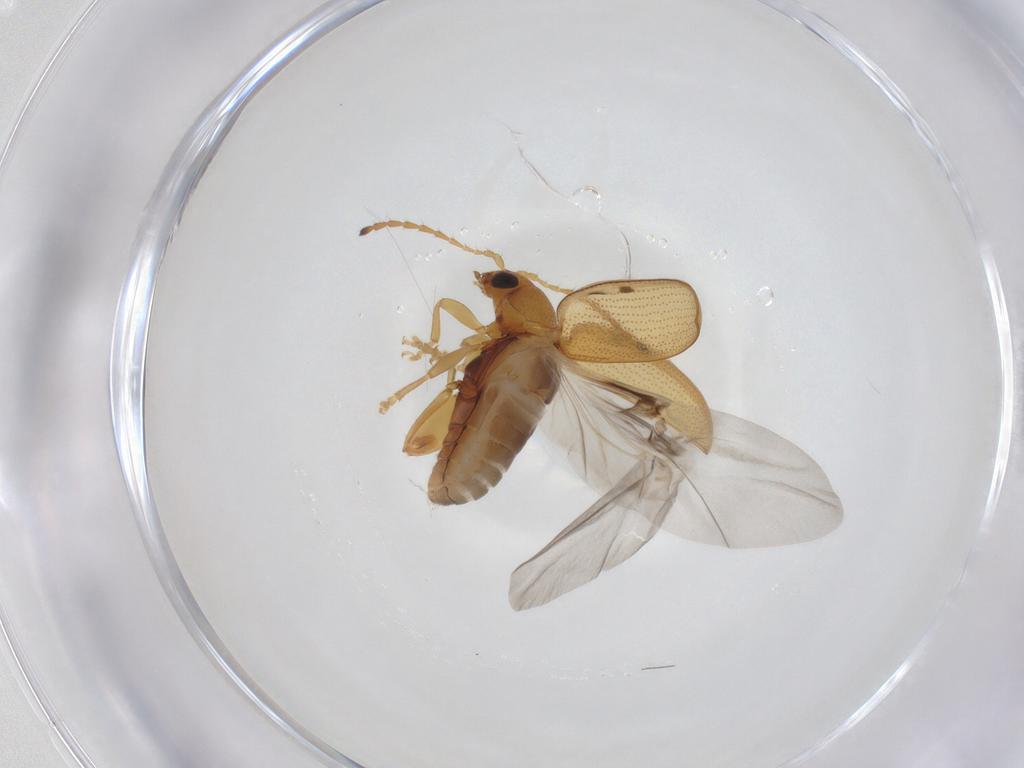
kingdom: Animalia
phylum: Arthropoda
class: Insecta
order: Coleoptera
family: Chrysomelidae
